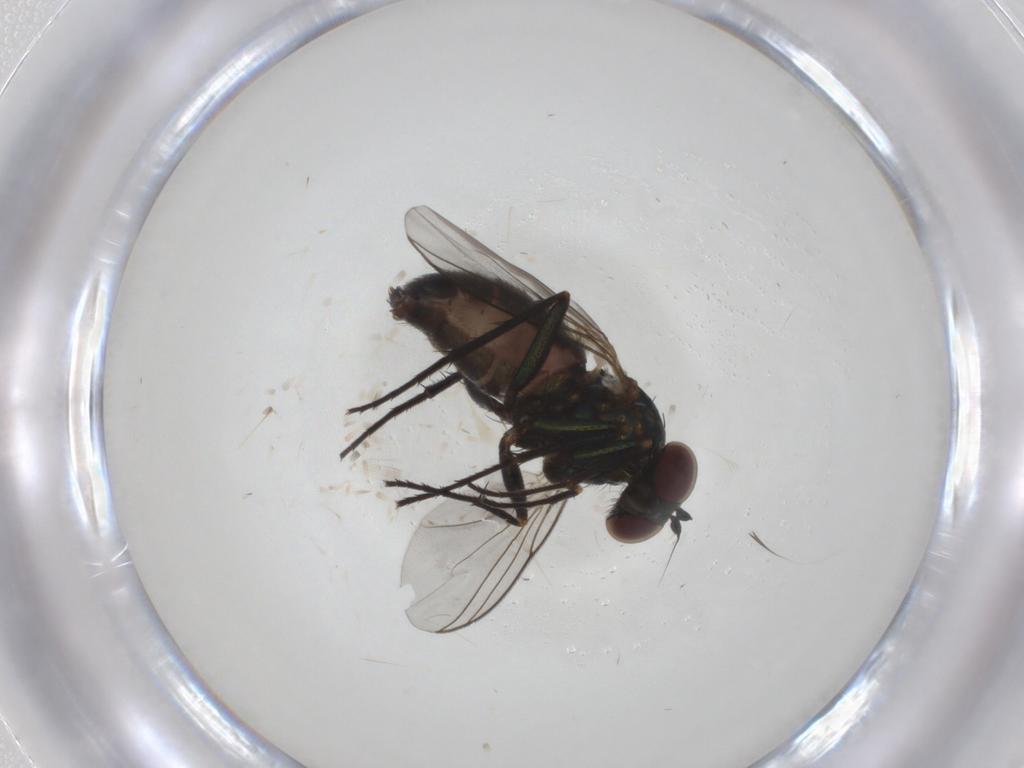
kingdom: Animalia
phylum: Arthropoda
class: Insecta
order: Diptera
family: Dolichopodidae
